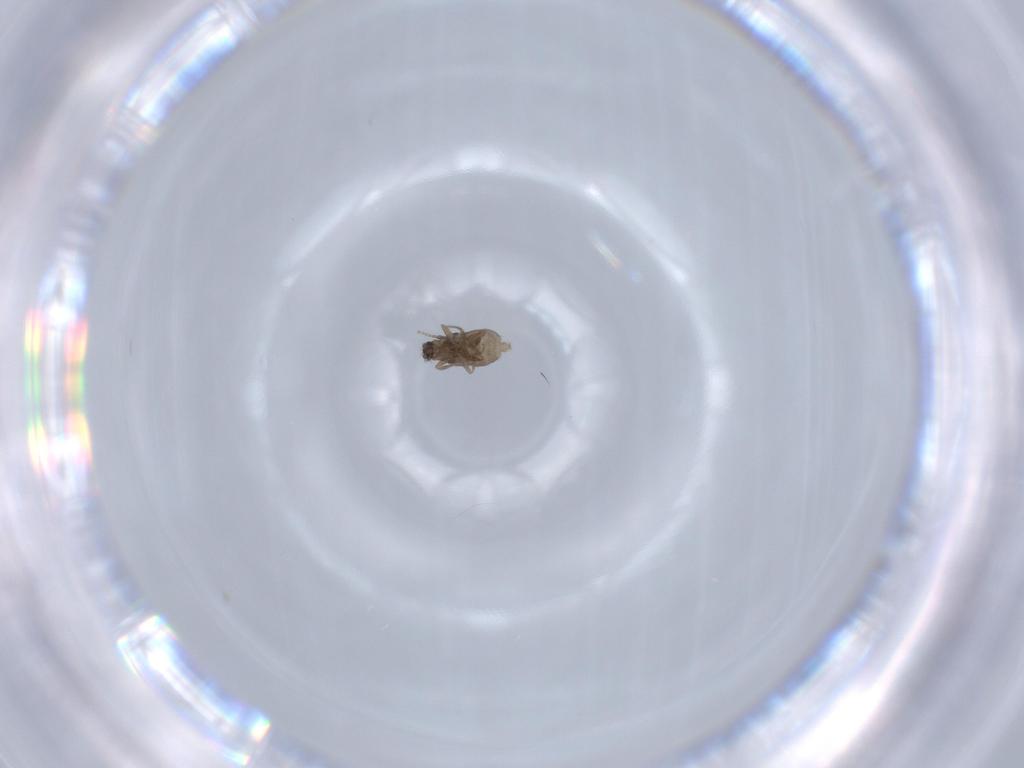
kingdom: Animalia
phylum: Arthropoda
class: Insecta
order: Diptera
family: Phoridae
